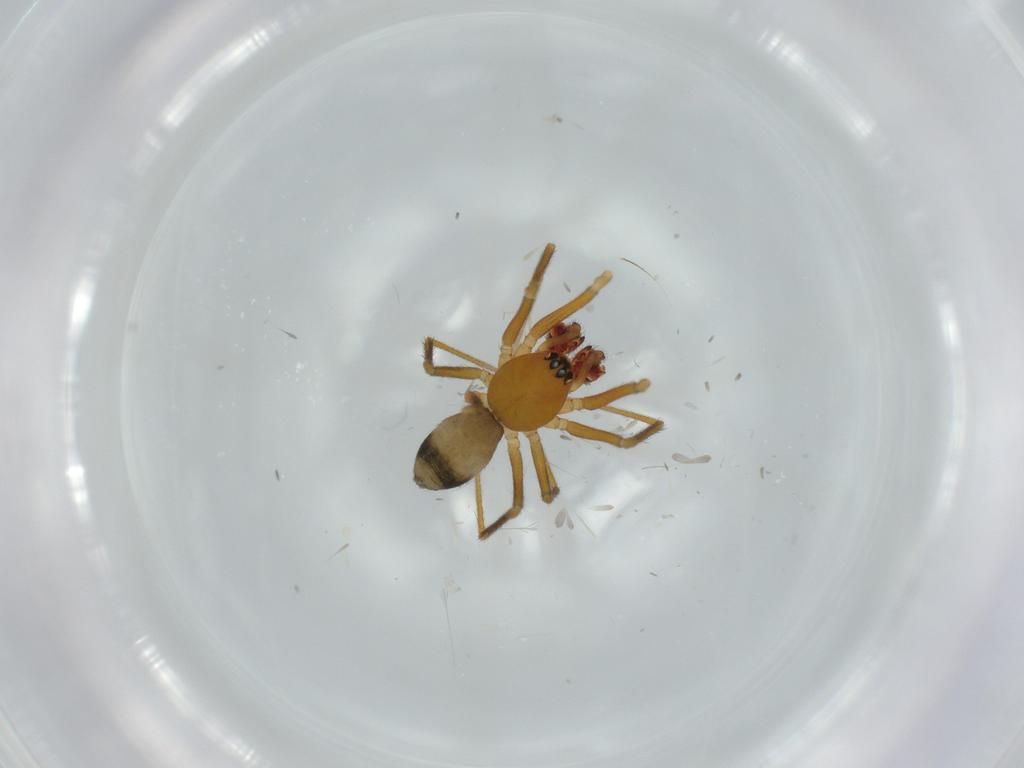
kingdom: Animalia
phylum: Arthropoda
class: Arachnida
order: Araneae
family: Linyphiidae
